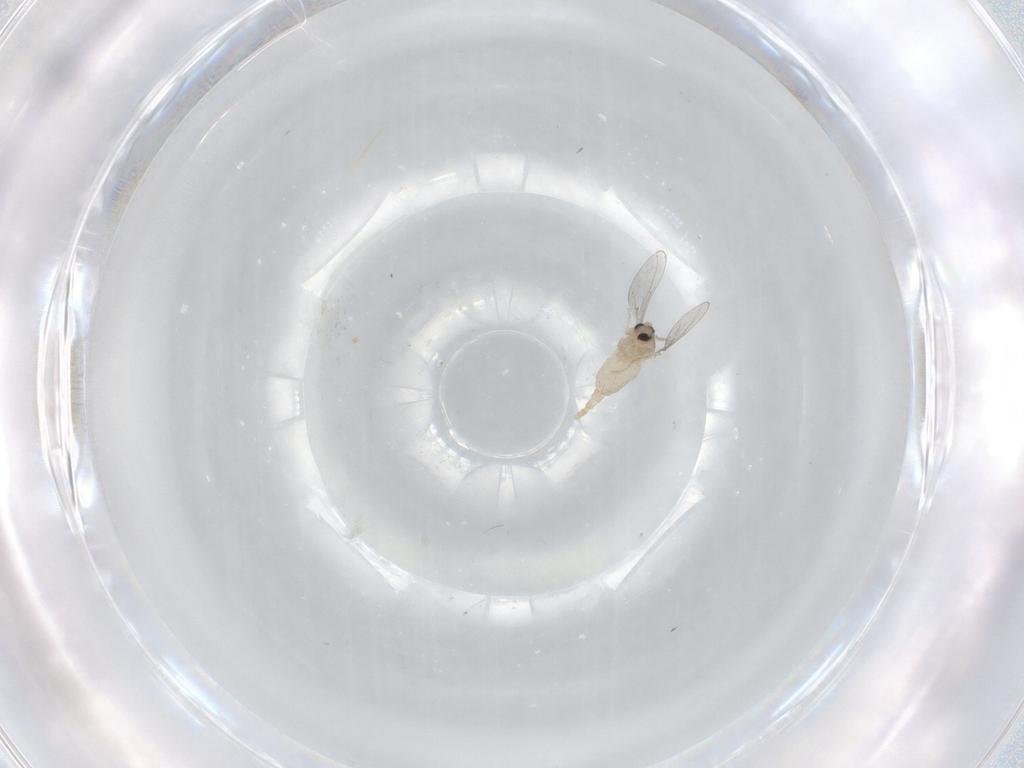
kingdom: Animalia
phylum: Arthropoda
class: Insecta
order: Diptera
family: Cecidomyiidae
